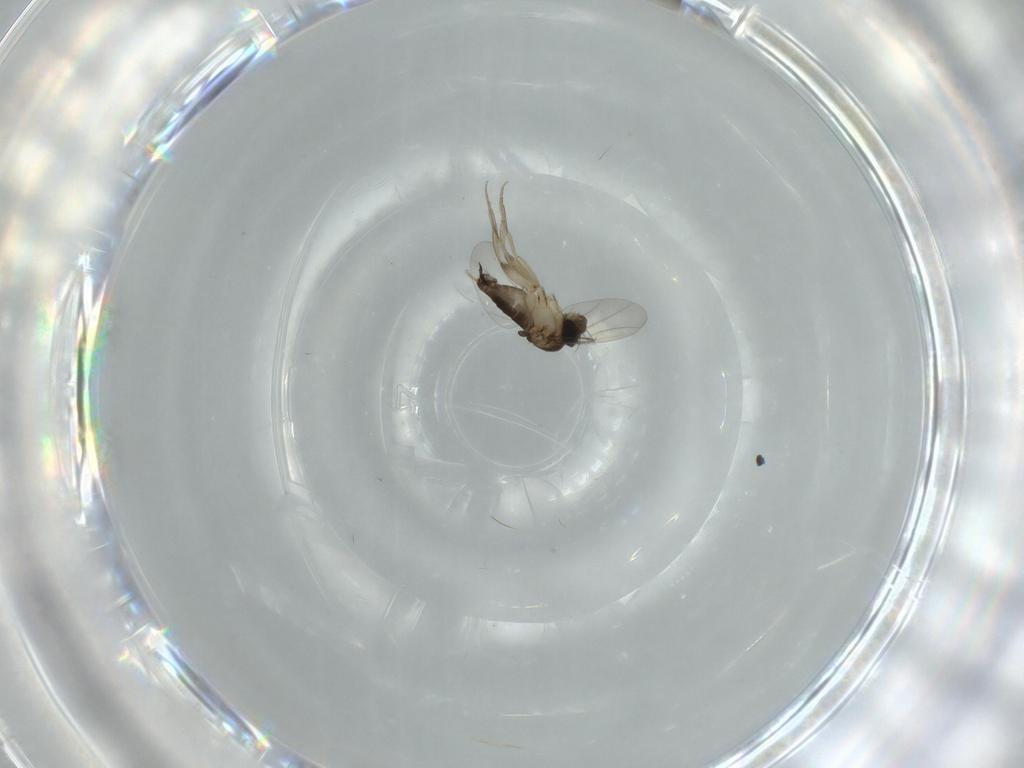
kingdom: Animalia
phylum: Arthropoda
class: Insecta
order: Diptera
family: Phoridae
